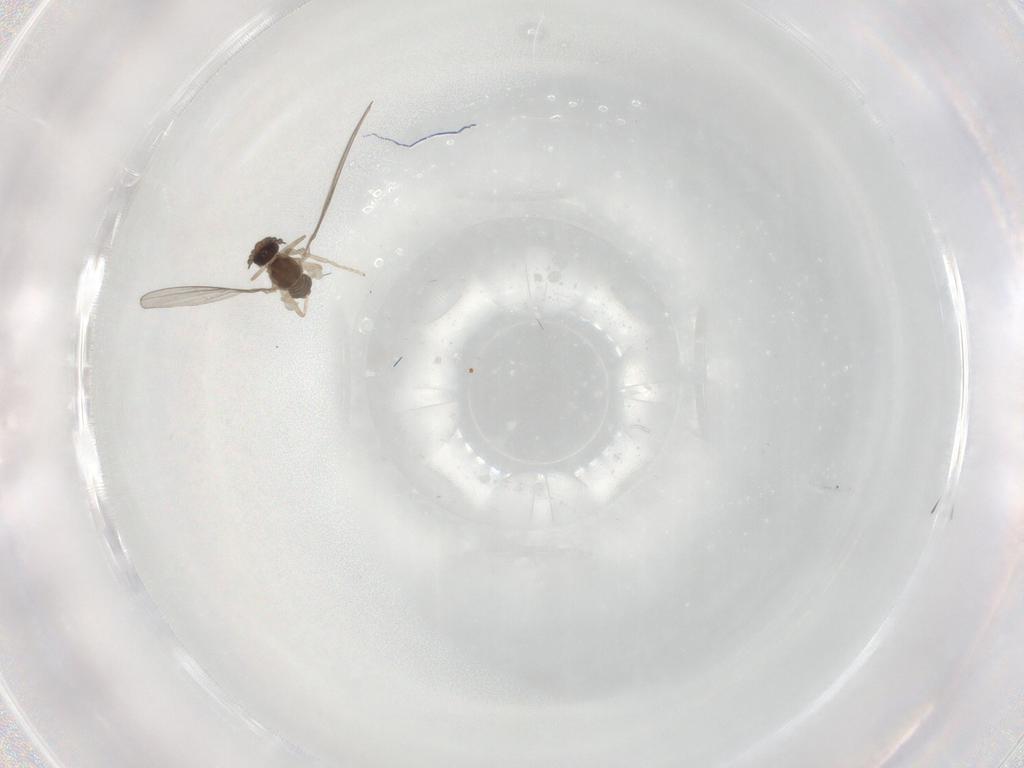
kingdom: Animalia
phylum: Arthropoda
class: Insecta
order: Diptera
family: Cecidomyiidae
